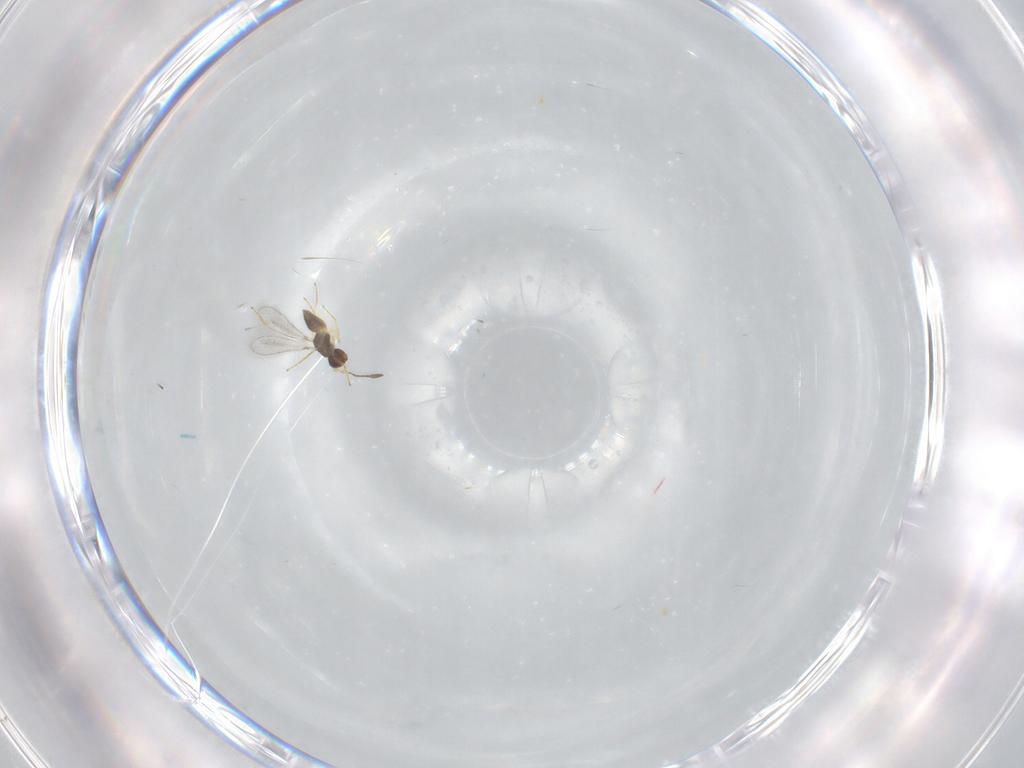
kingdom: Animalia
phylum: Arthropoda
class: Insecta
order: Hymenoptera
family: Mymaridae
